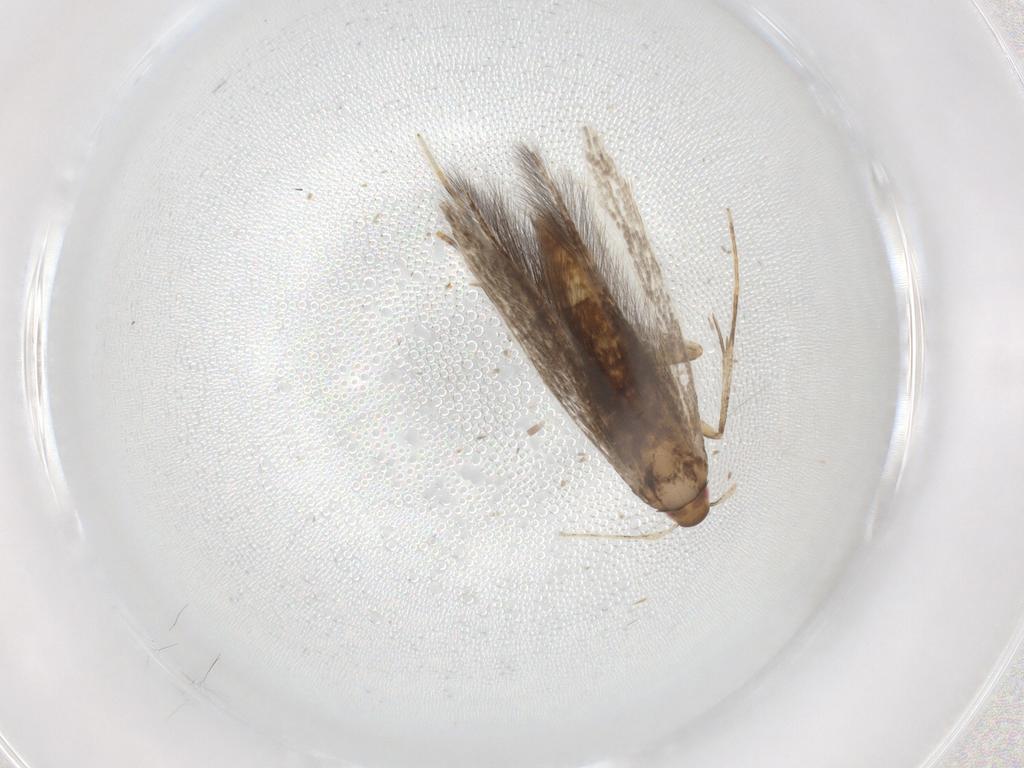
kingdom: Animalia
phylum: Arthropoda
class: Insecta
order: Lepidoptera
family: Cosmopterigidae
